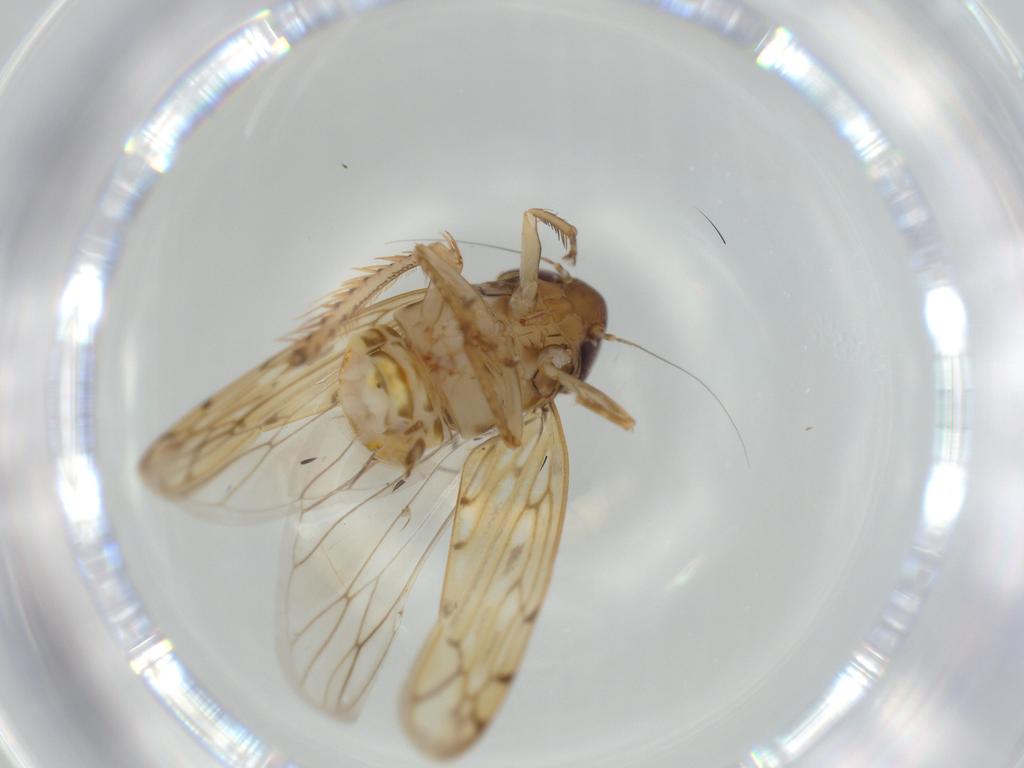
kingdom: Animalia
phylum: Arthropoda
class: Insecta
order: Hemiptera
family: Cicadellidae
